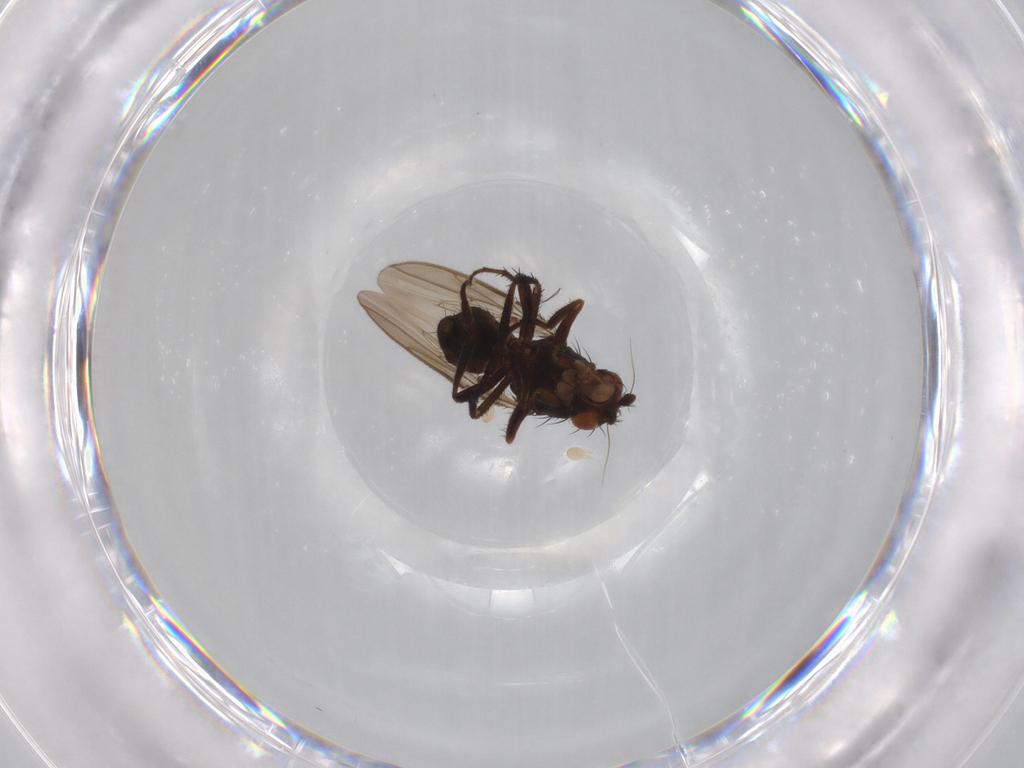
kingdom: Animalia
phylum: Arthropoda
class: Insecta
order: Diptera
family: Sphaeroceridae
